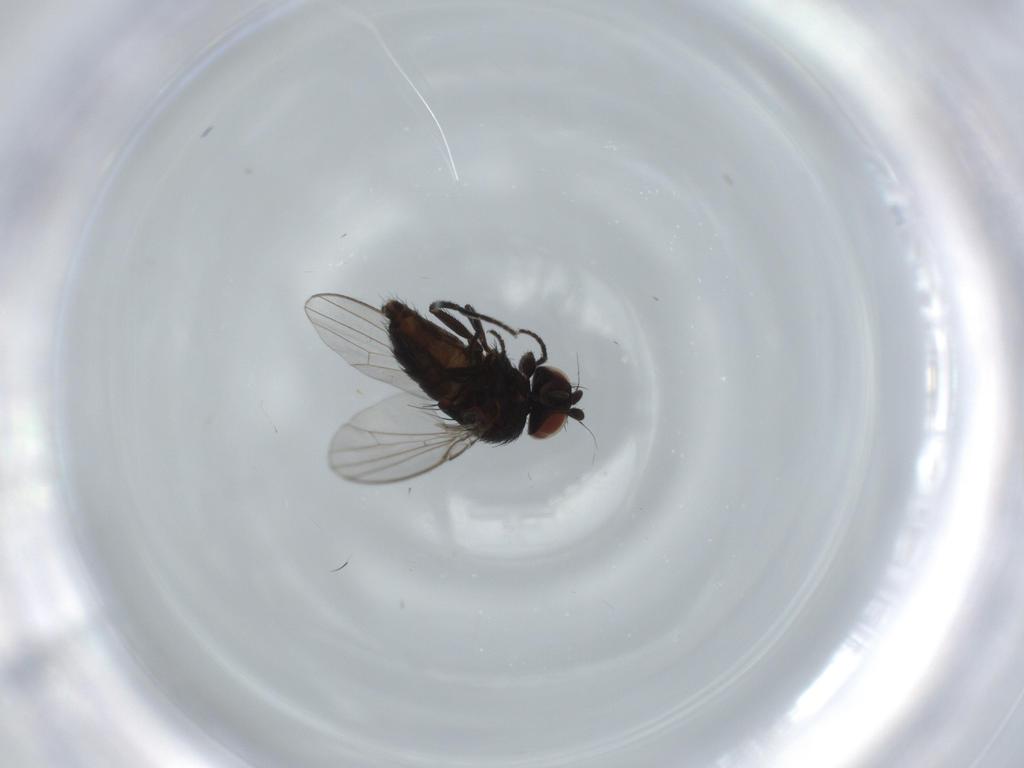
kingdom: Animalia
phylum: Arthropoda
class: Insecta
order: Diptera
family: Milichiidae
